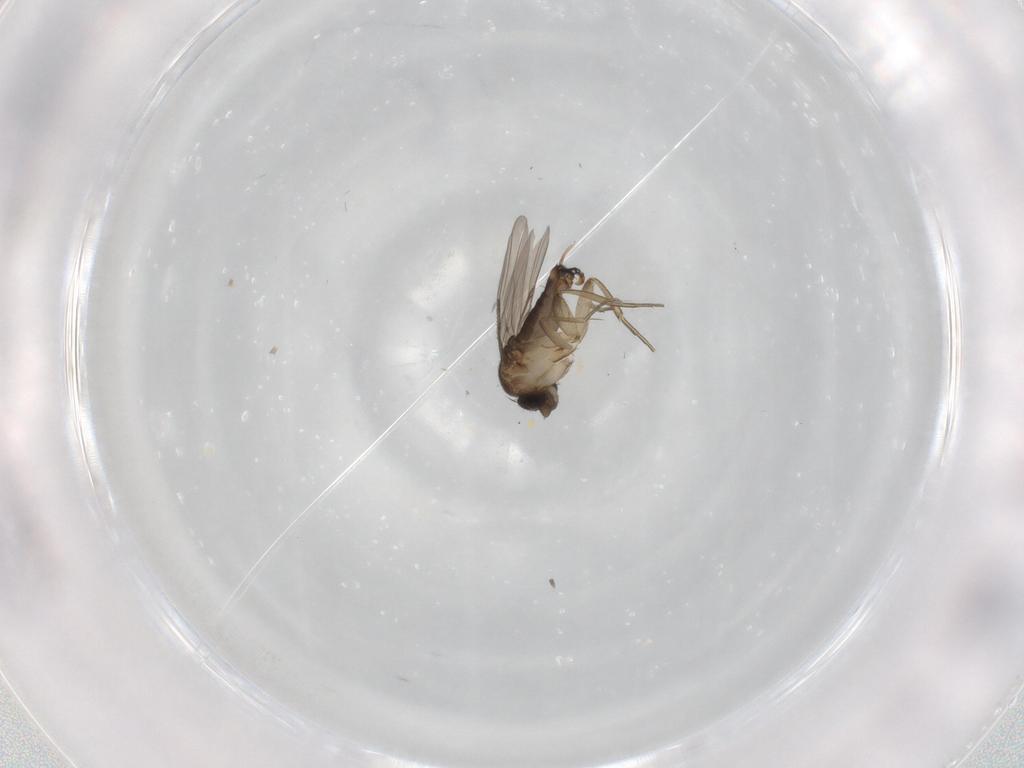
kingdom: Animalia
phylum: Arthropoda
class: Insecta
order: Diptera
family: Phoridae
